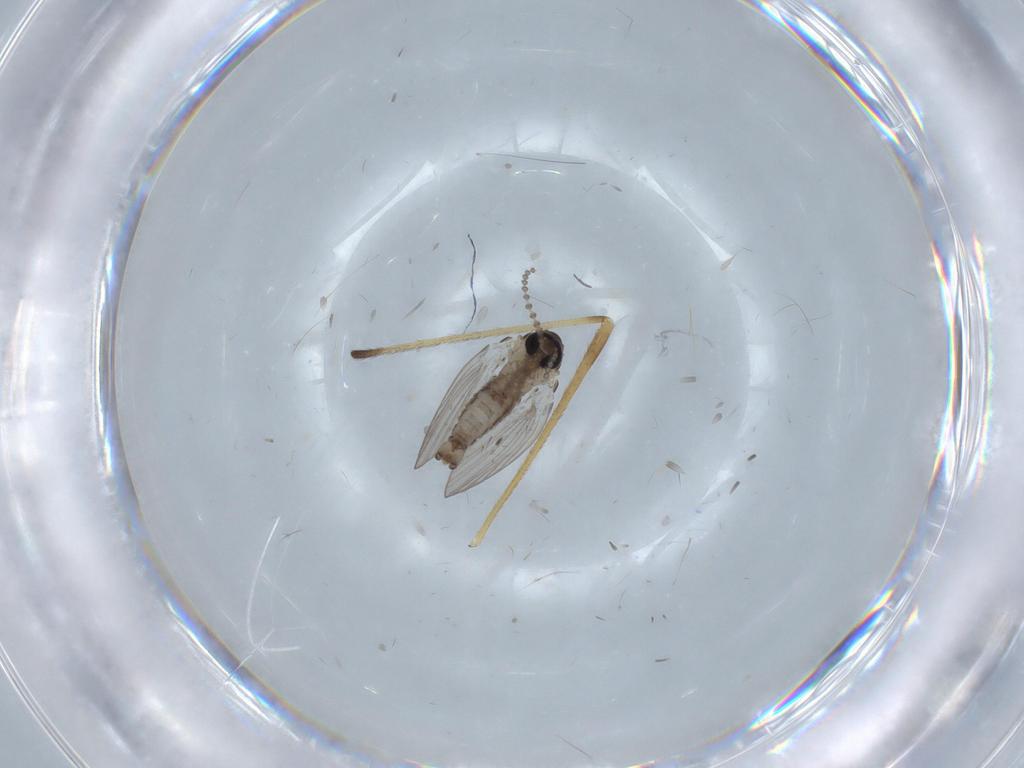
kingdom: Animalia
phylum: Arthropoda
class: Insecta
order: Diptera
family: Limoniidae
